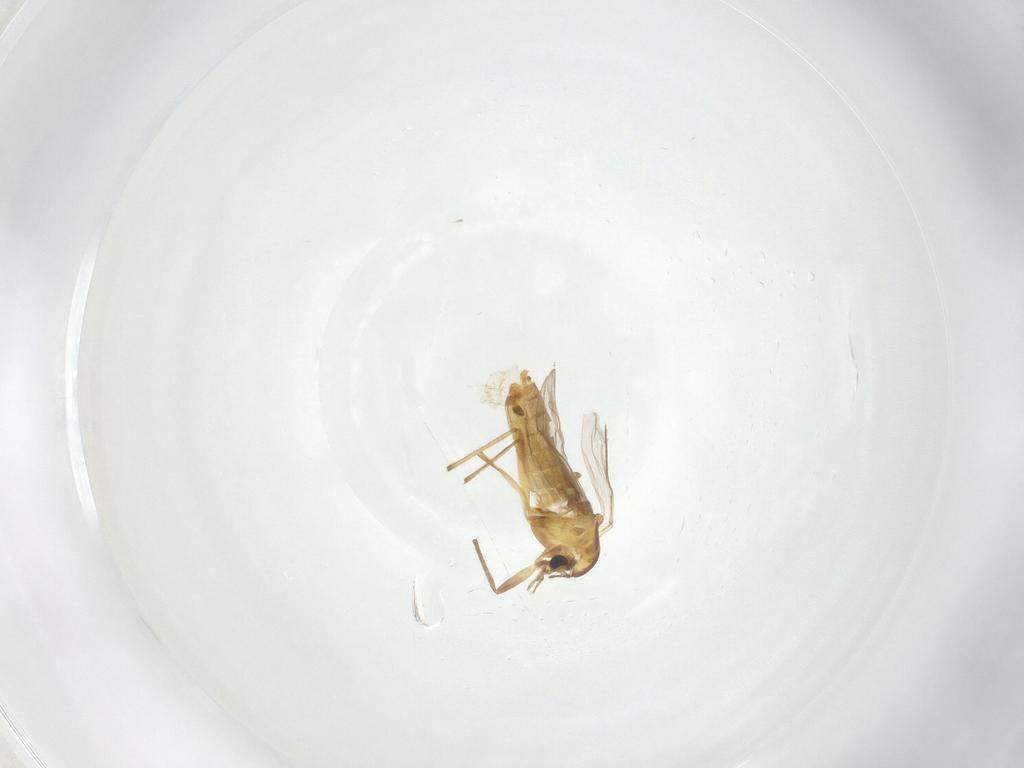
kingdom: Animalia
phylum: Arthropoda
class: Insecta
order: Diptera
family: Chironomidae
